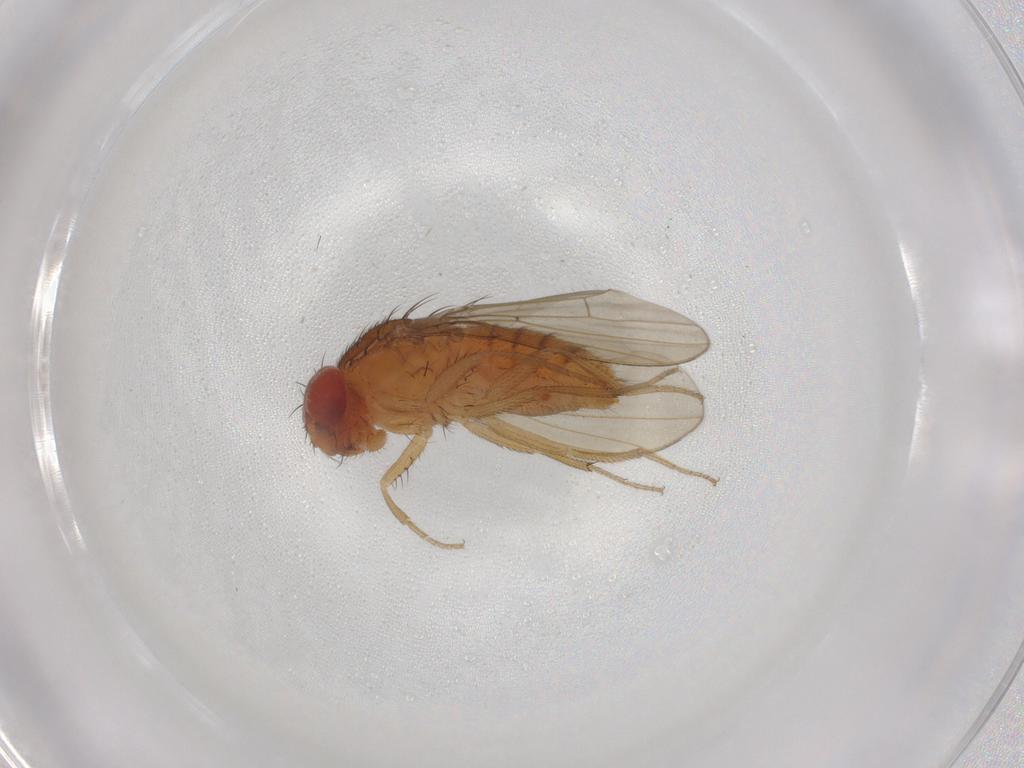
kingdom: Animalia
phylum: Arthropoda
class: Insecta
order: Diptera
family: Drosophilidae
